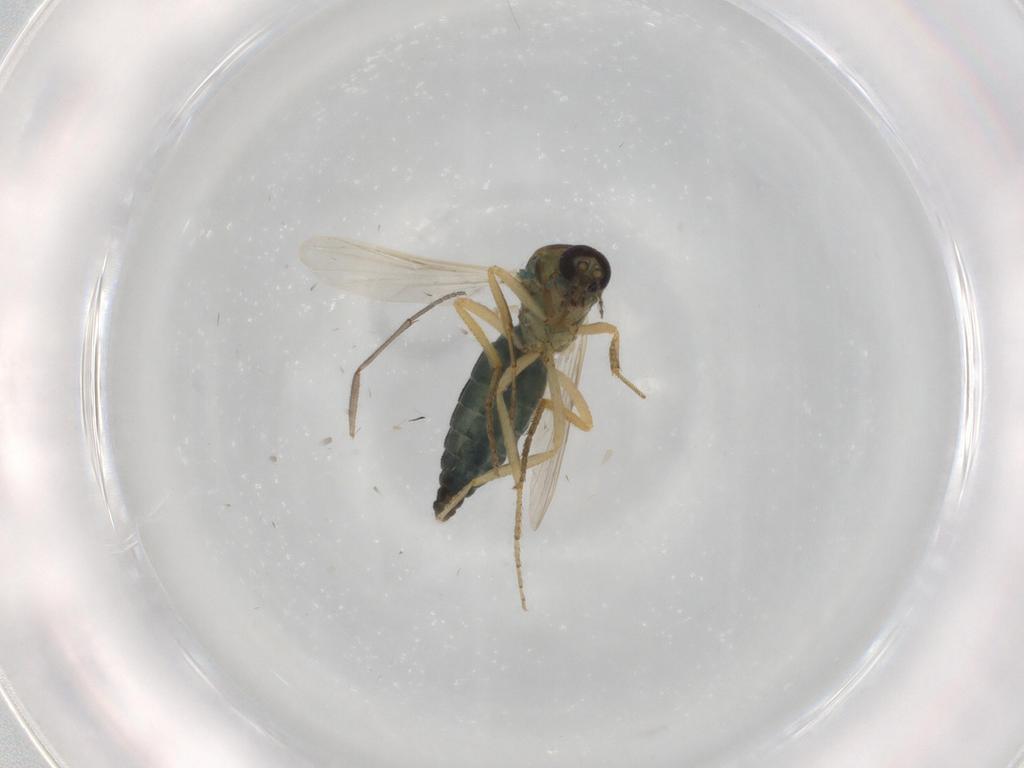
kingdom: Animalia
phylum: Arthropoda
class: Insecta
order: Diptera
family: Ceratopogonidae
